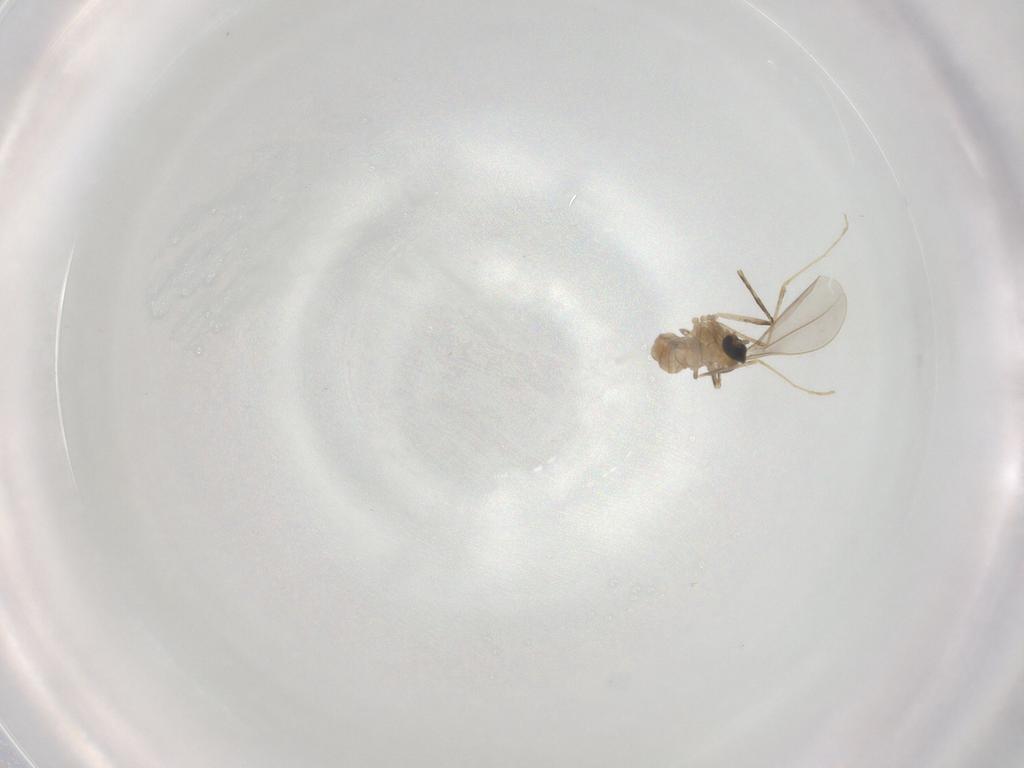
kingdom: Animalia
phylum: Arthropoda
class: Insecta
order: Diptera
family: Cecidomyiidae
